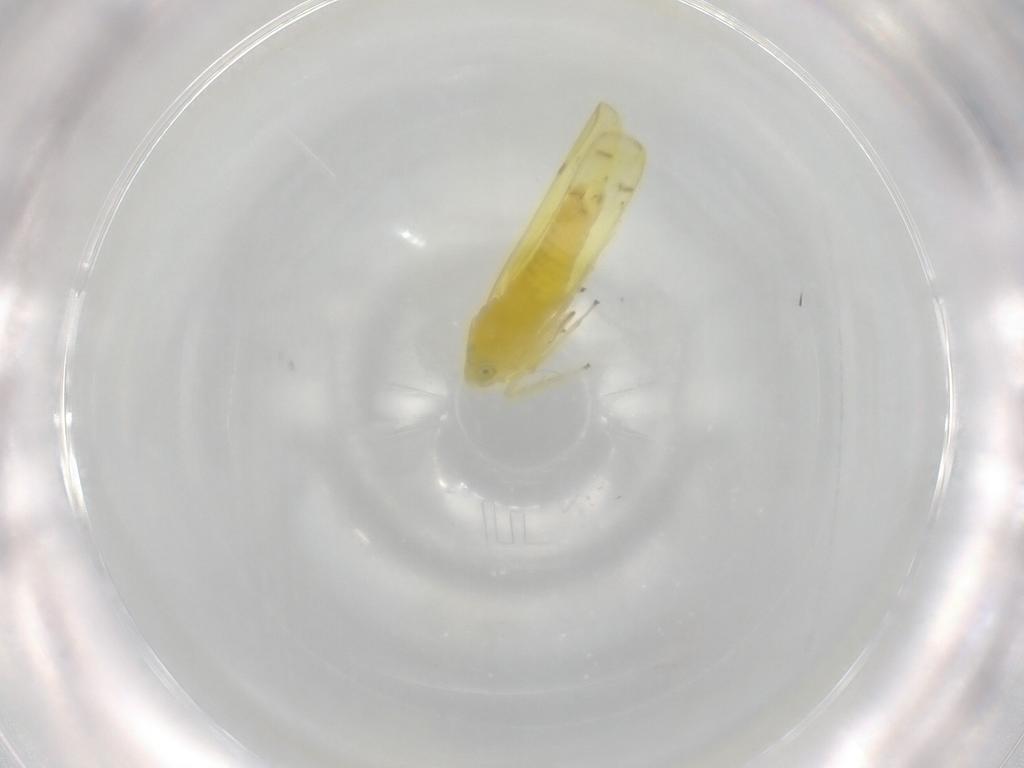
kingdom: Animalia
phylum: Arthropoda
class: Insecta
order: Hemiptera
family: Cicadellidae
